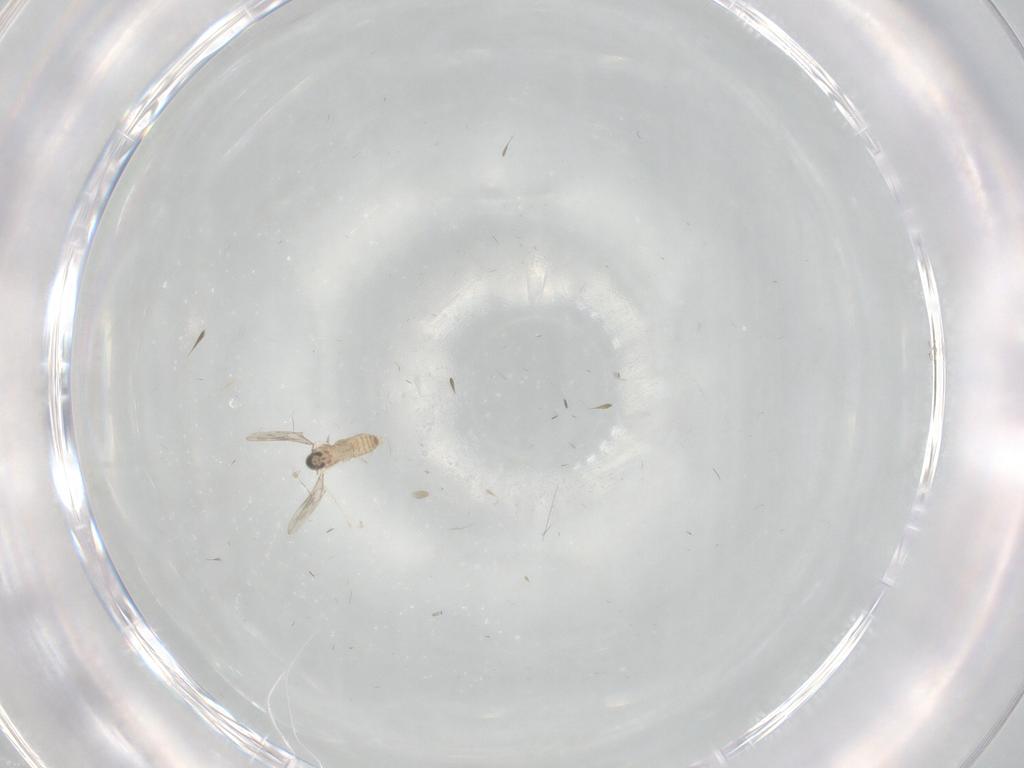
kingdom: Animalia
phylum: Arthropoda
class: Insecta
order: Diptera
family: Cecidomyiidae
